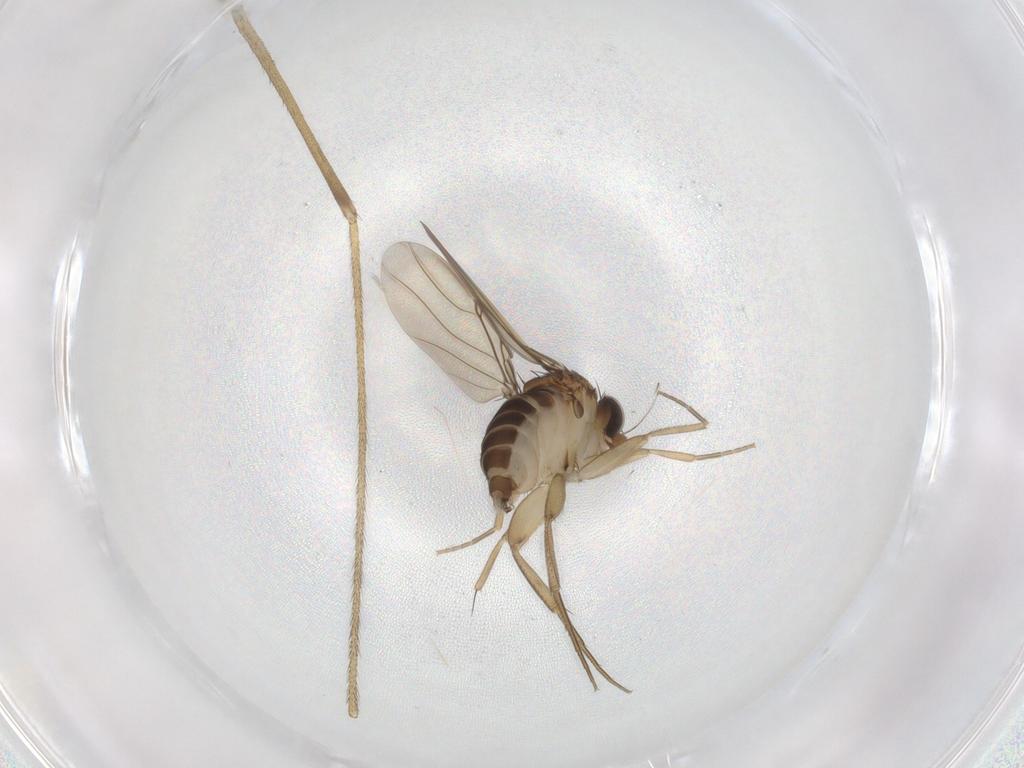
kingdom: Animalia
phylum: Arthropoda
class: Insecta
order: Diptera
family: Phoridae
